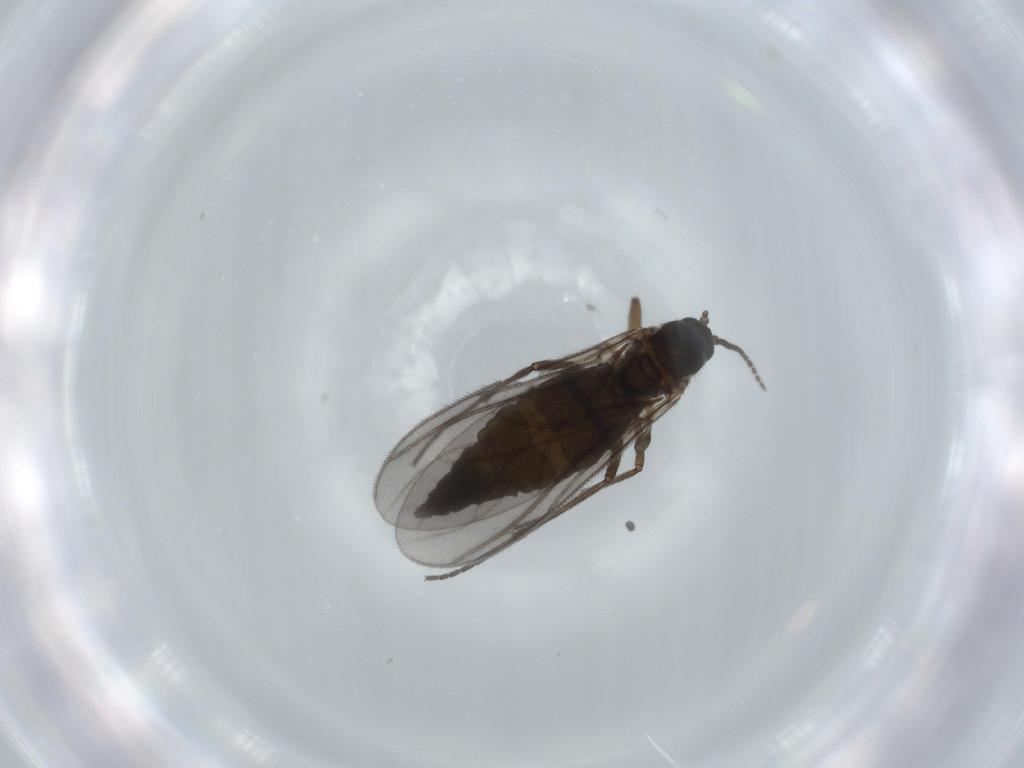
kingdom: Animalia
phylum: Arthropoda
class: Insecta
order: Diptera
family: Sciaridae
